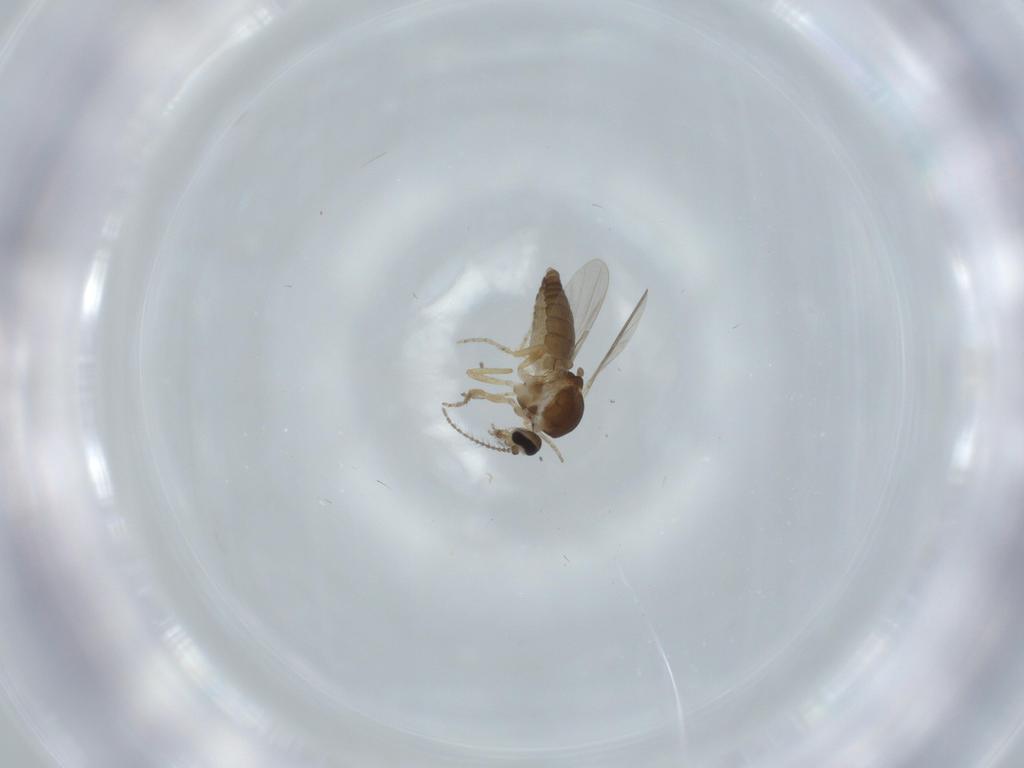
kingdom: Animalia
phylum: Arthropoda
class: Insecta
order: Diptera
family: Ceratopogonidae
